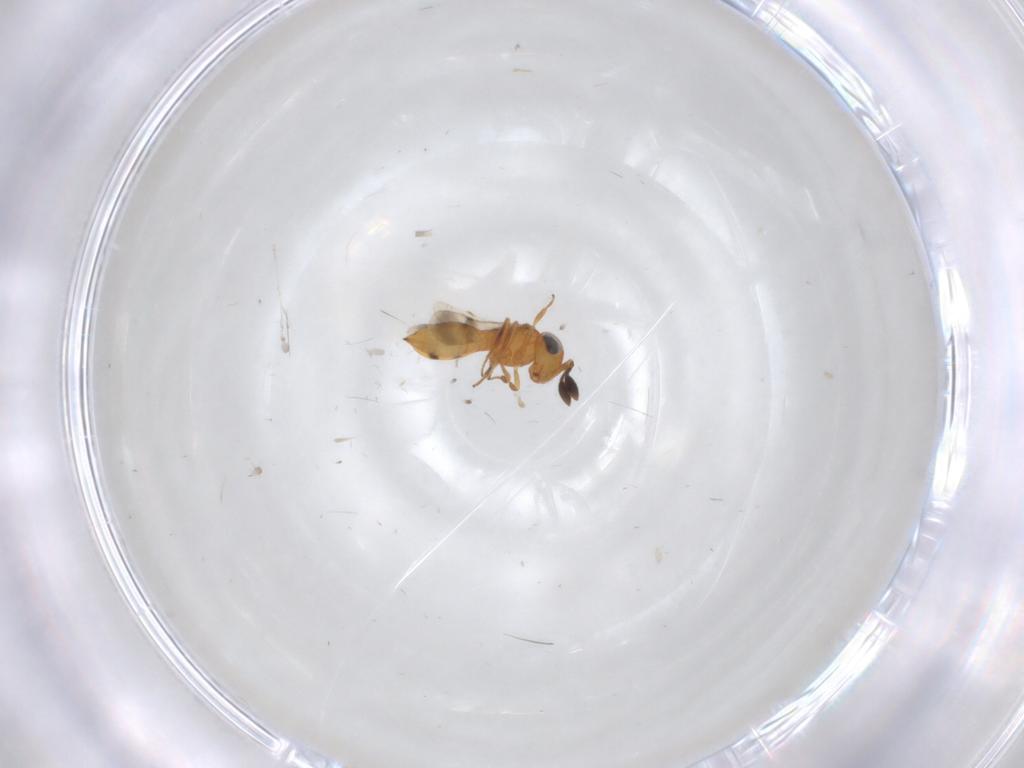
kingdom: Animalia
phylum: Arthropoda
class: Insecta
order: Hymenoptera
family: Scelionidae
